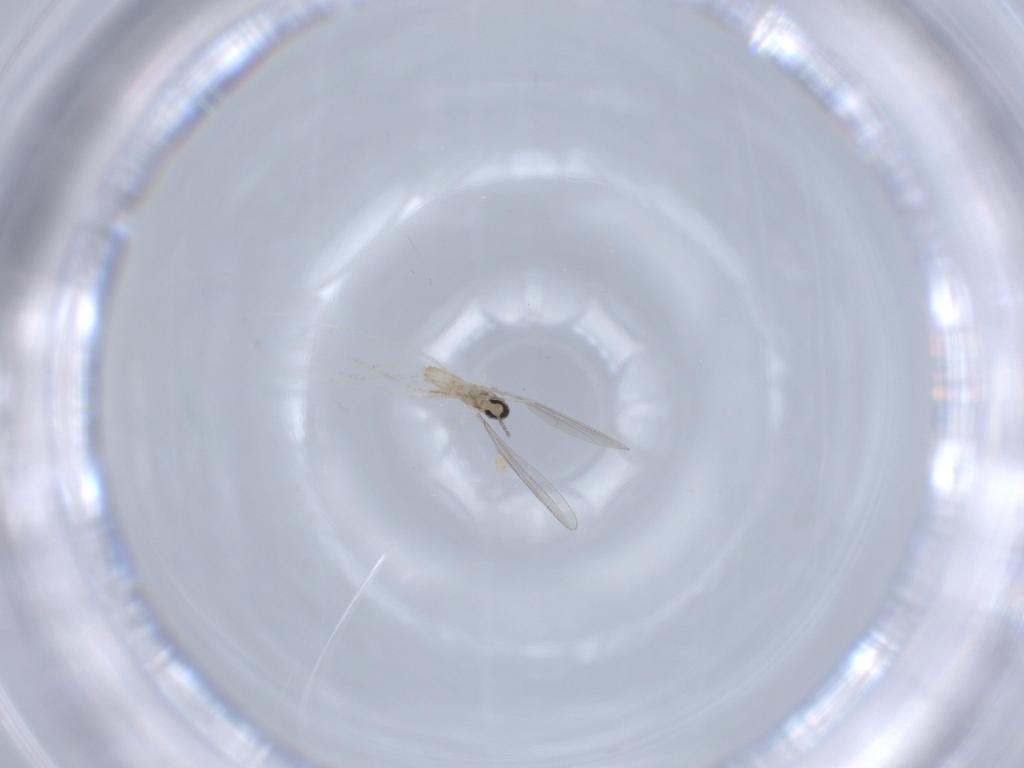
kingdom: Animalia
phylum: Arthropoda
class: Insecta
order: Diptera
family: Cecidomyiidae
